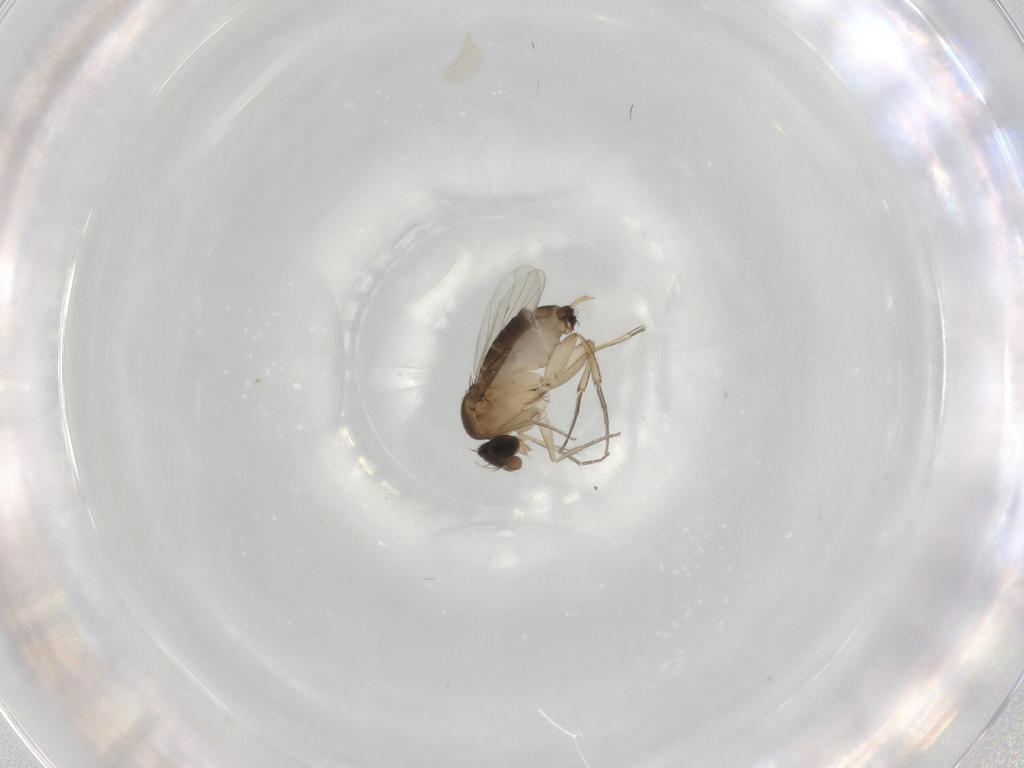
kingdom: Animalia
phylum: Arthropoda
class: Insecta
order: Diptera
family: Phoridae
